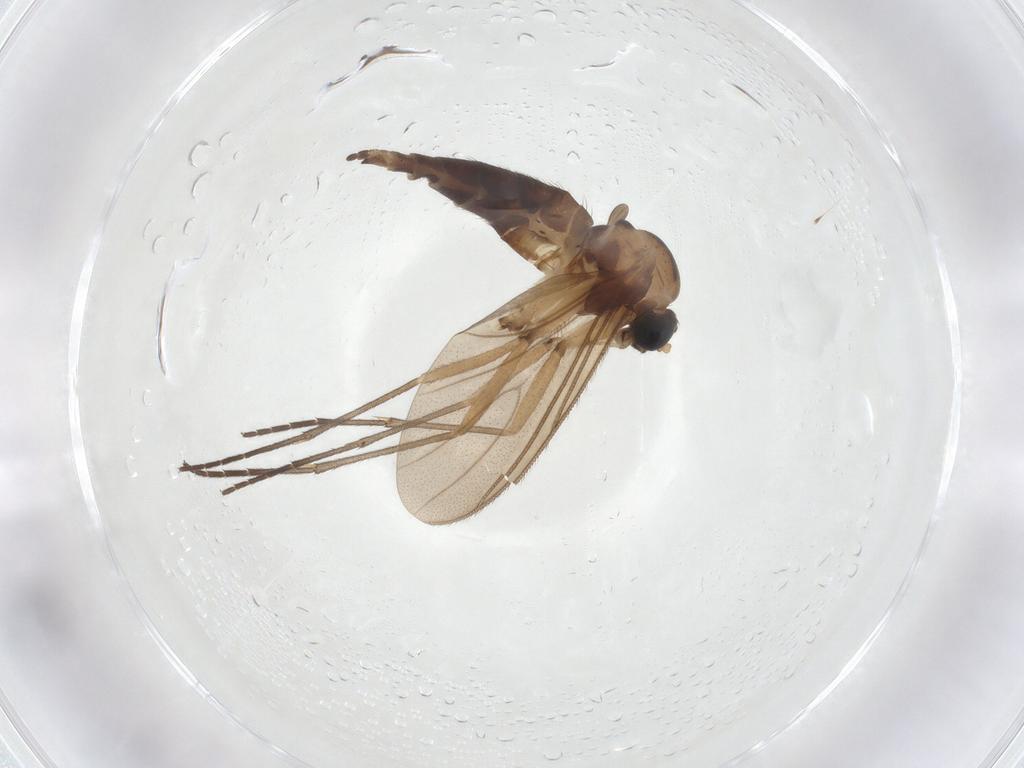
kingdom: Animalia
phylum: Arthropoda
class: Insecta
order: Diptera
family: Sciaridae
